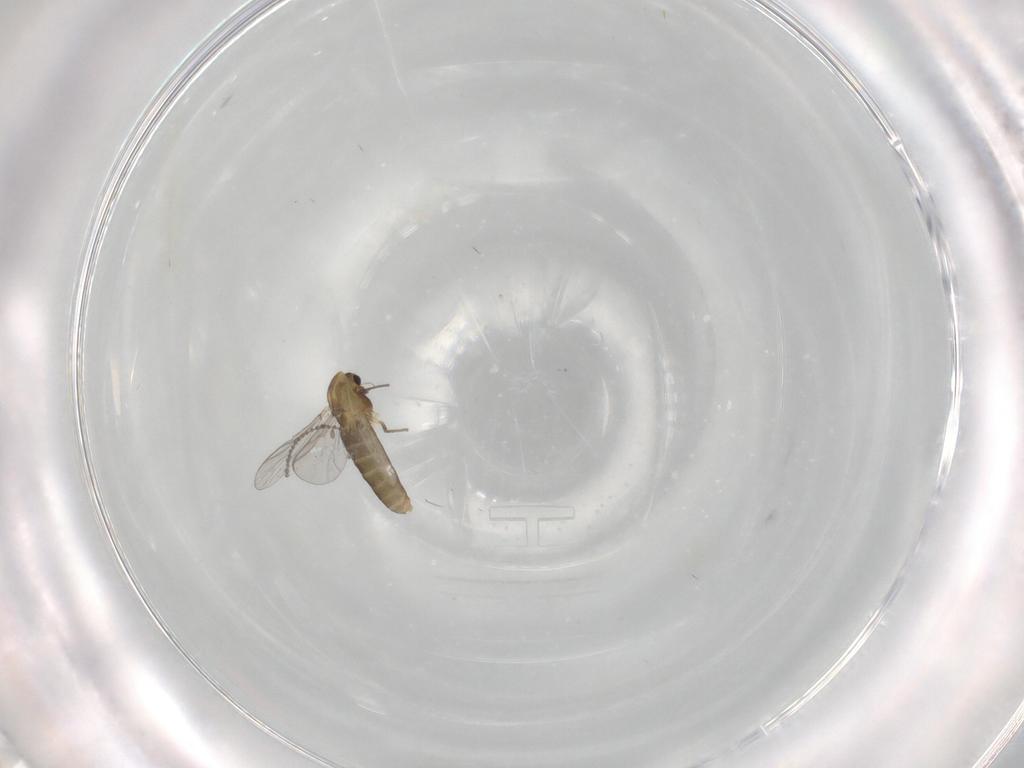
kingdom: Animalia
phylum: Arthropoda
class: Insecta
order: Diptera
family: Chironomidae
